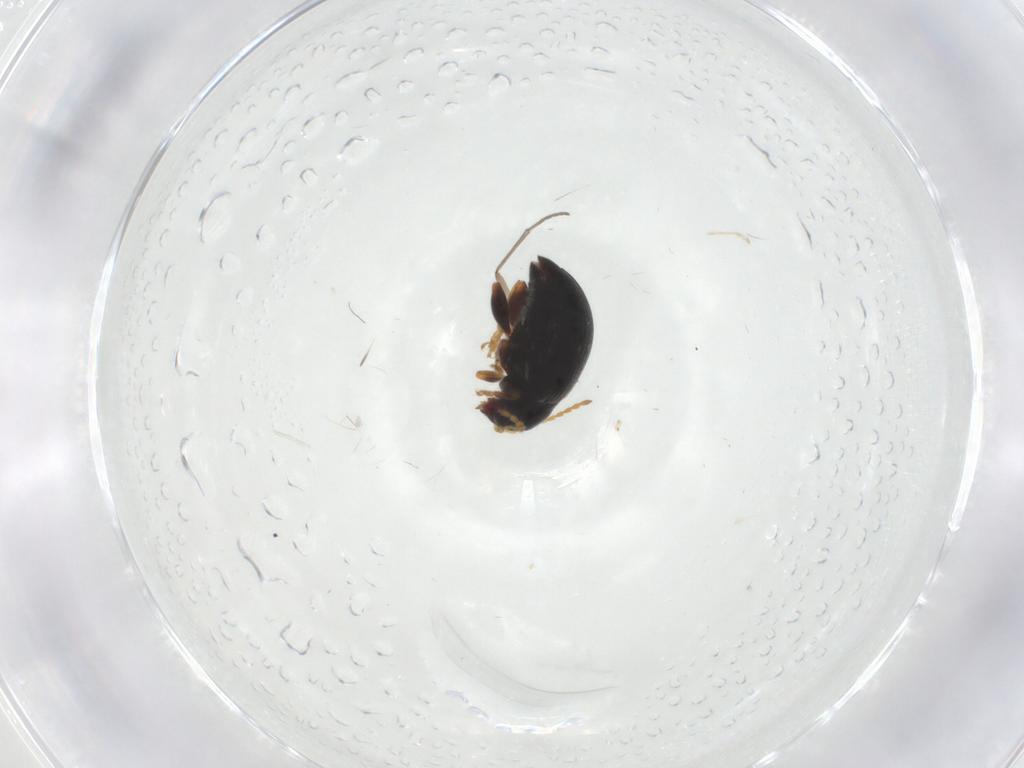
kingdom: Animalia
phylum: Arthropoda
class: Insecta
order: Coleoptera
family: Chrysomelidae
